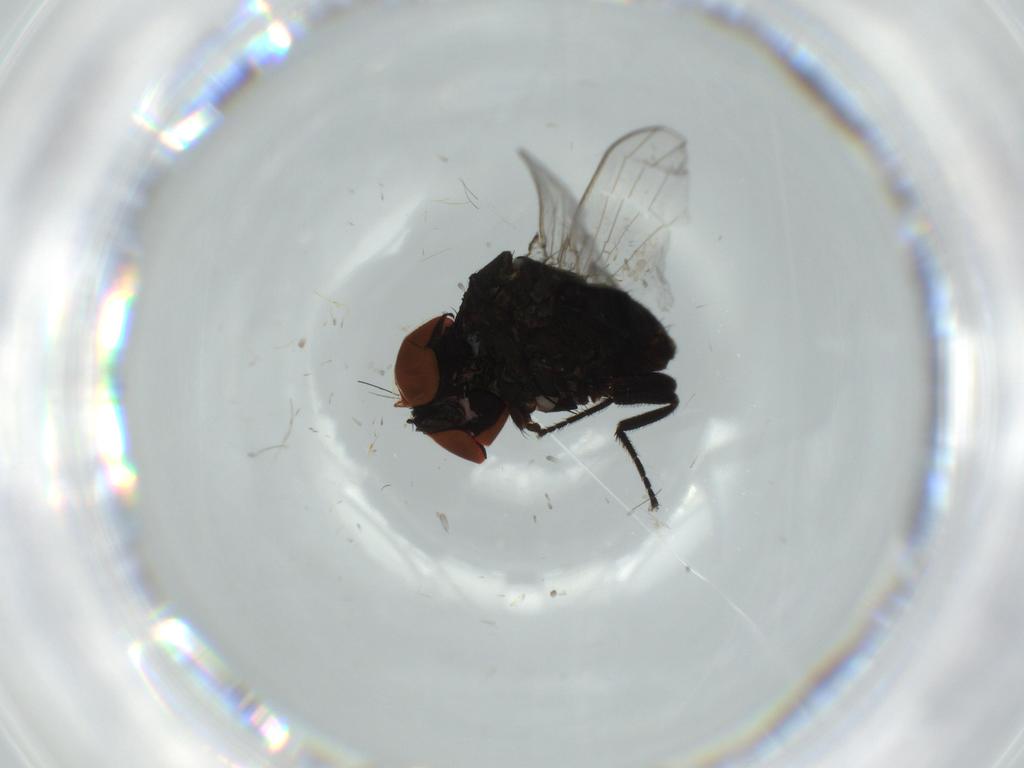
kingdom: Animalia
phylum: Arthropoda
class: Insecta
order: Diptera
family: Milichiidae
